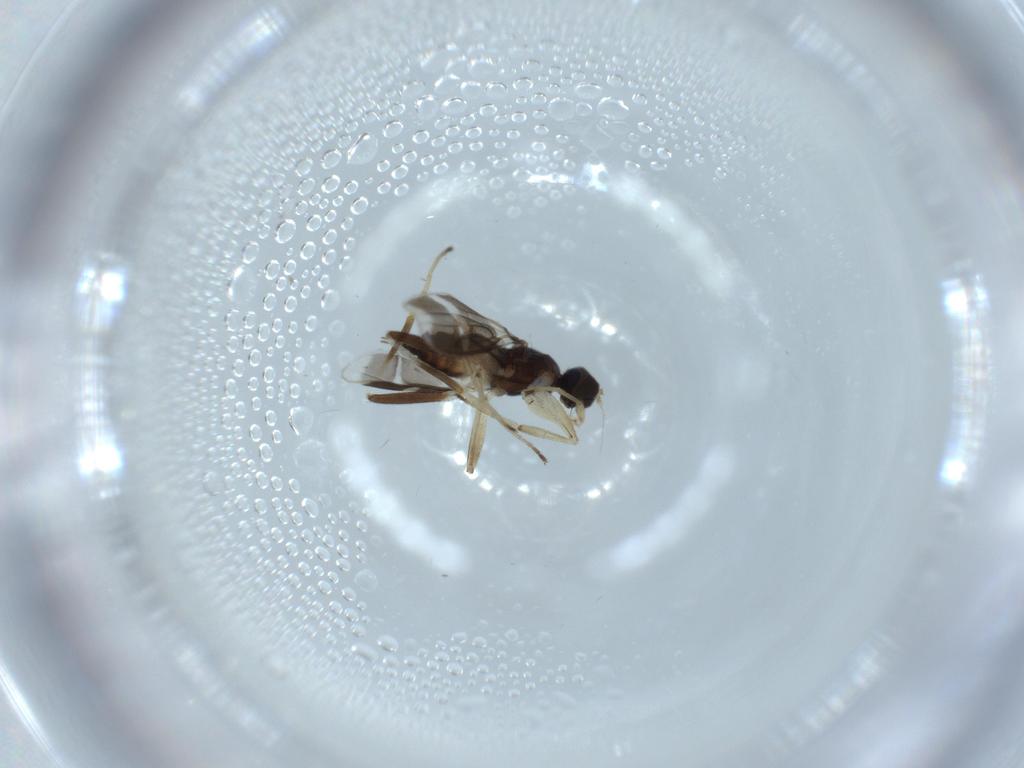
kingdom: Animalia
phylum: Arthropoda
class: Insecta
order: Diptera
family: Hybotidae
